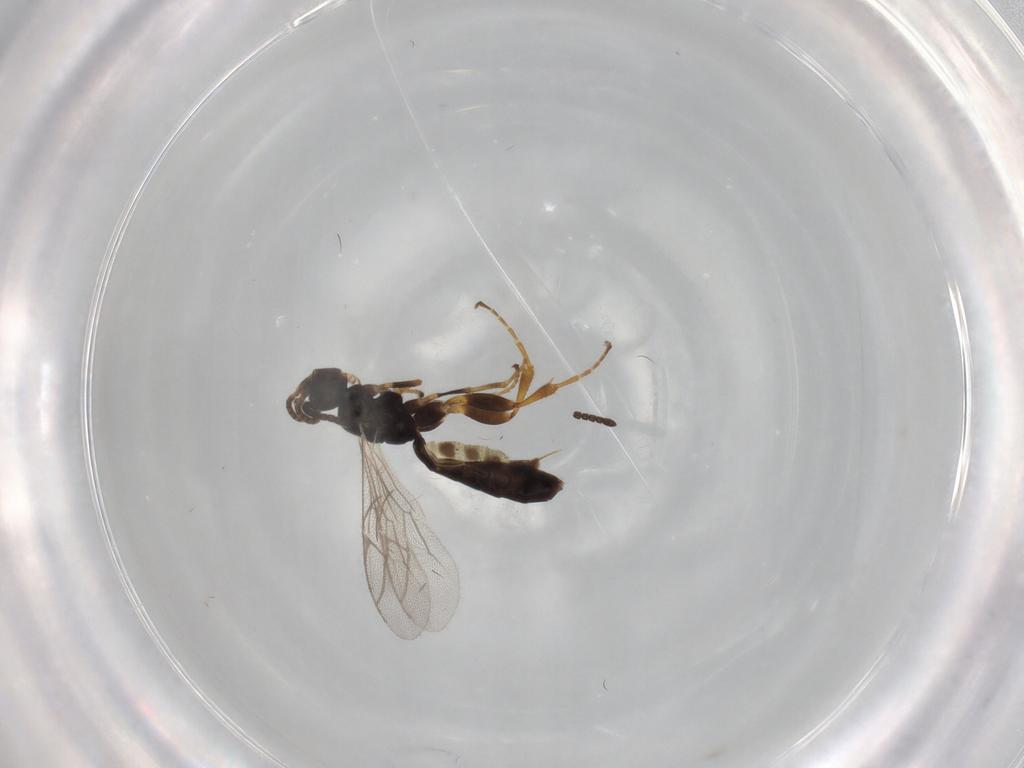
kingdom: Animalia
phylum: Arthropoda
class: Insecta
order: Hymenoptera
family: Ichneumonidae
